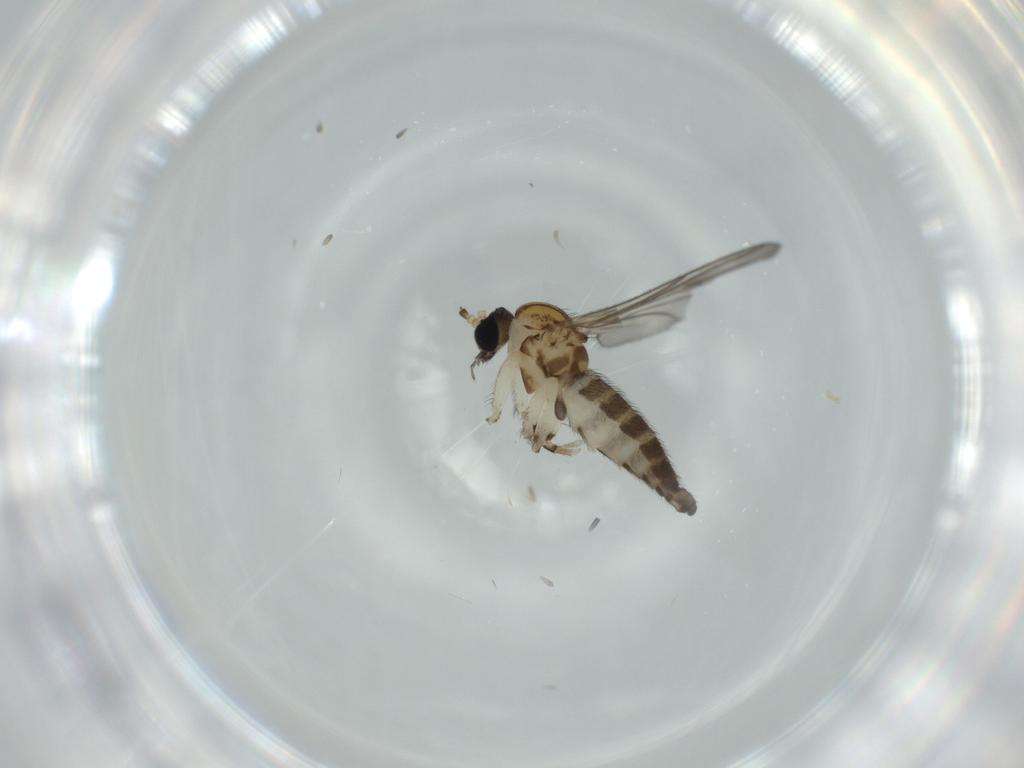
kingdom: Animalia
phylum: Arthropoda
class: Insecta
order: Diptera
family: Sciaridae
